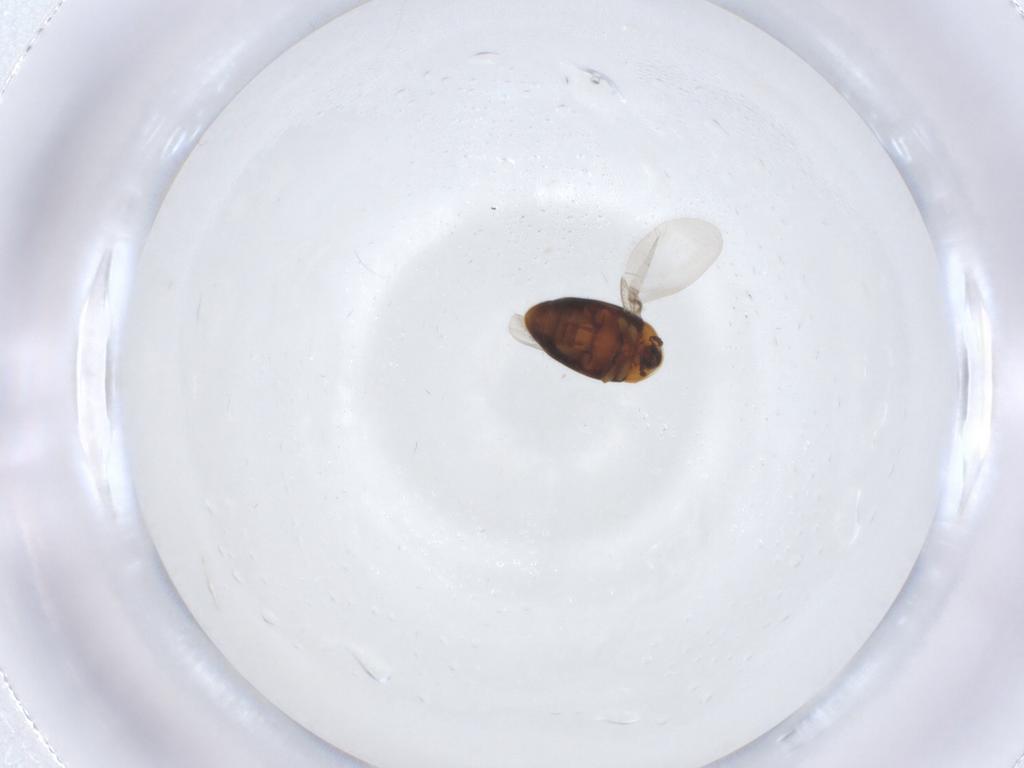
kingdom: Animalia
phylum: Arthropoda
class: Insecta
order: Coleoptera
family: Corylophidae
